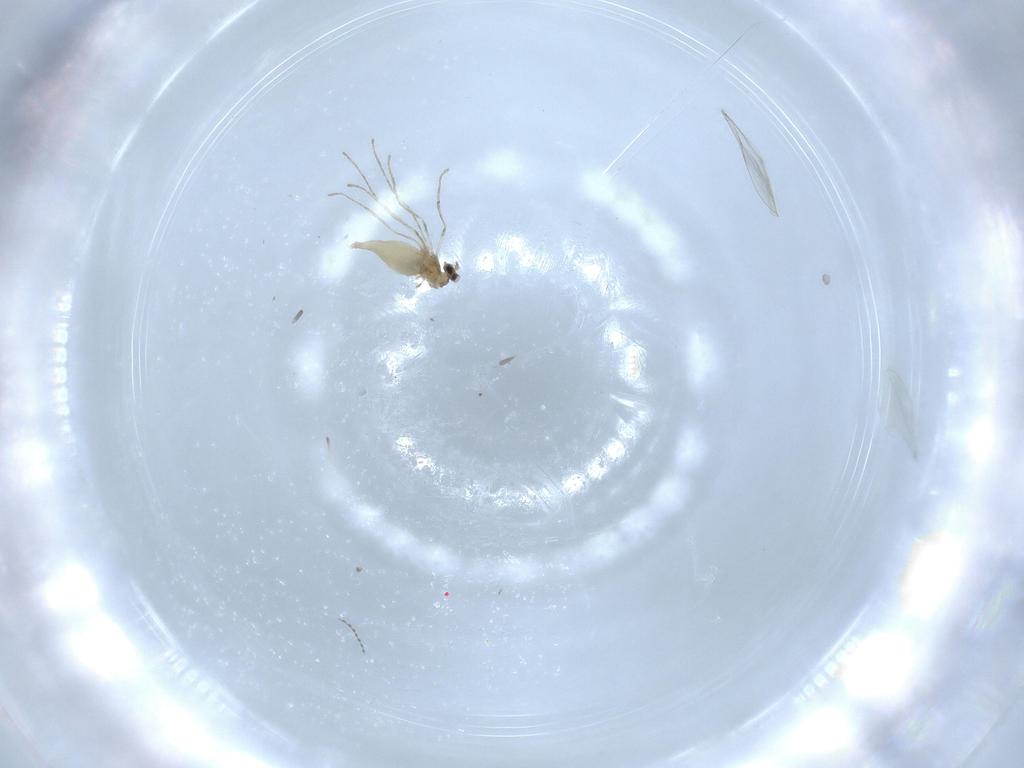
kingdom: Animalia
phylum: Arthropoda
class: Insecta
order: Diptera
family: Cecidomyiidae
